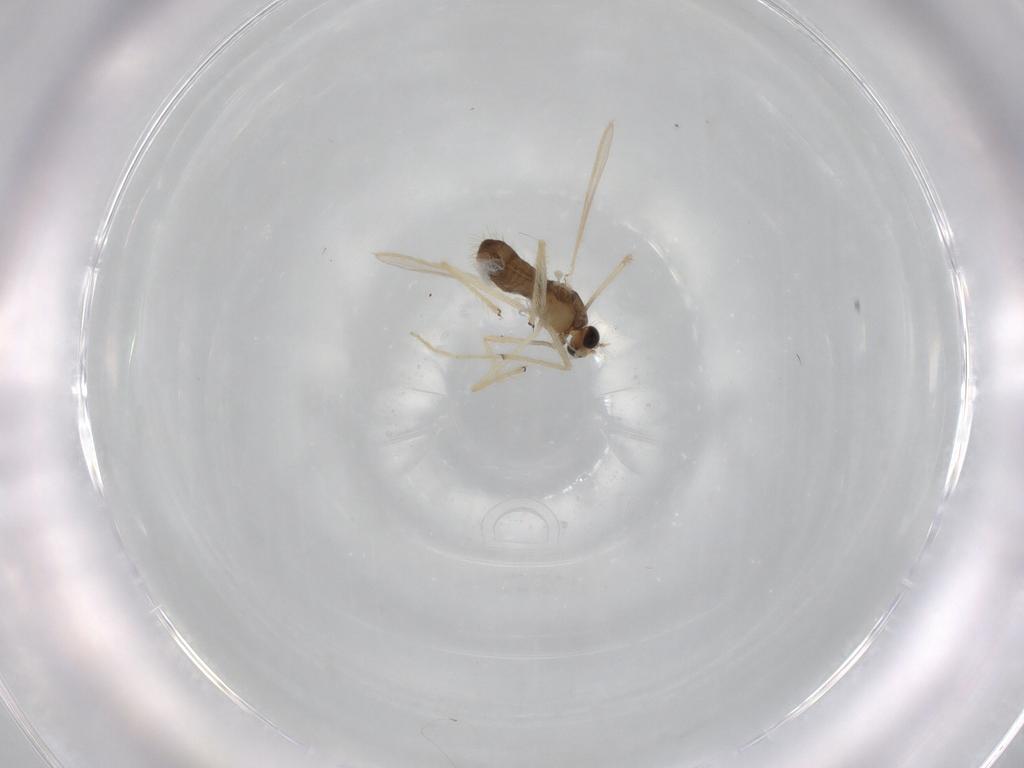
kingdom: Animalia
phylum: Arthropoda
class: Insecta
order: Diptera
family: Chironomidae
